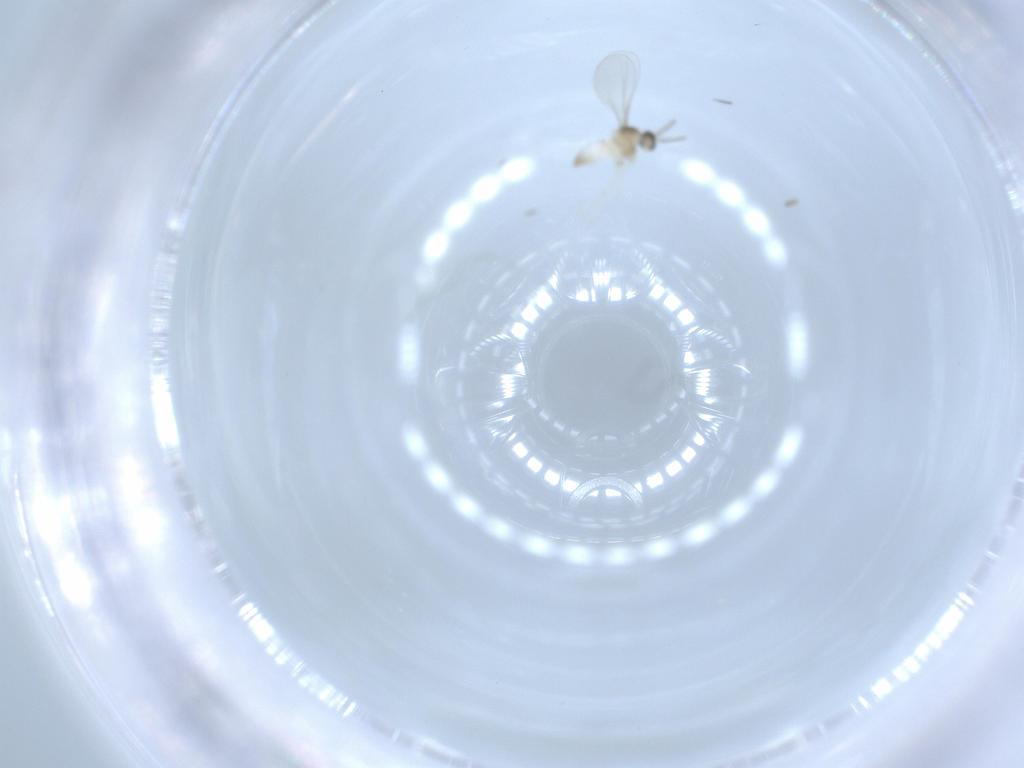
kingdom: Animalia
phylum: Arthropoda
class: Insecta
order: Diptera
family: Cecidomyiidae
